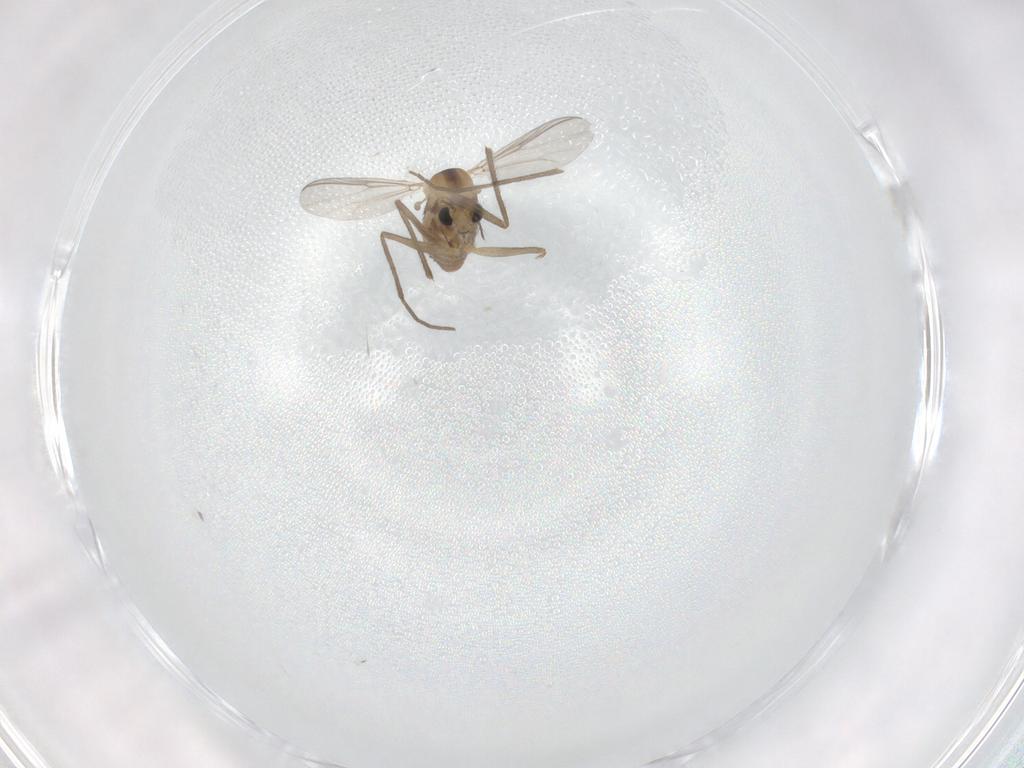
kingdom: Animalia
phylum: Arthropoda
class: Insecta
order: Diptera
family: Chironomidae
